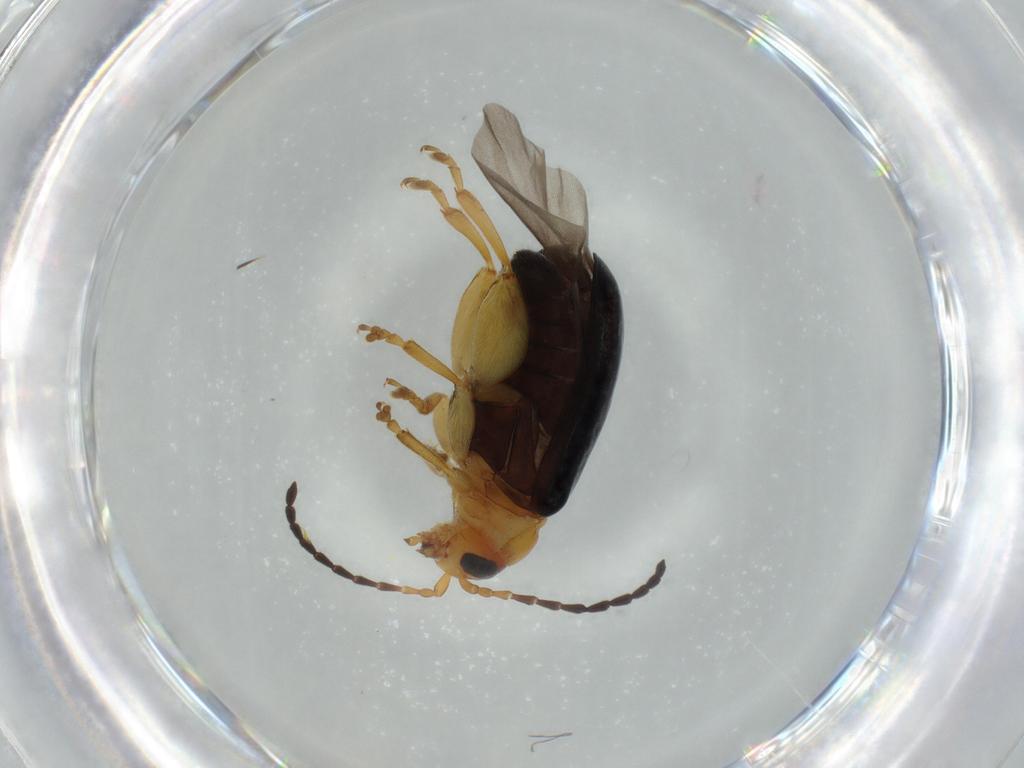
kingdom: Animalia
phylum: Arthropoda
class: Insecta
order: Coleoptera
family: Chrysomelidae
